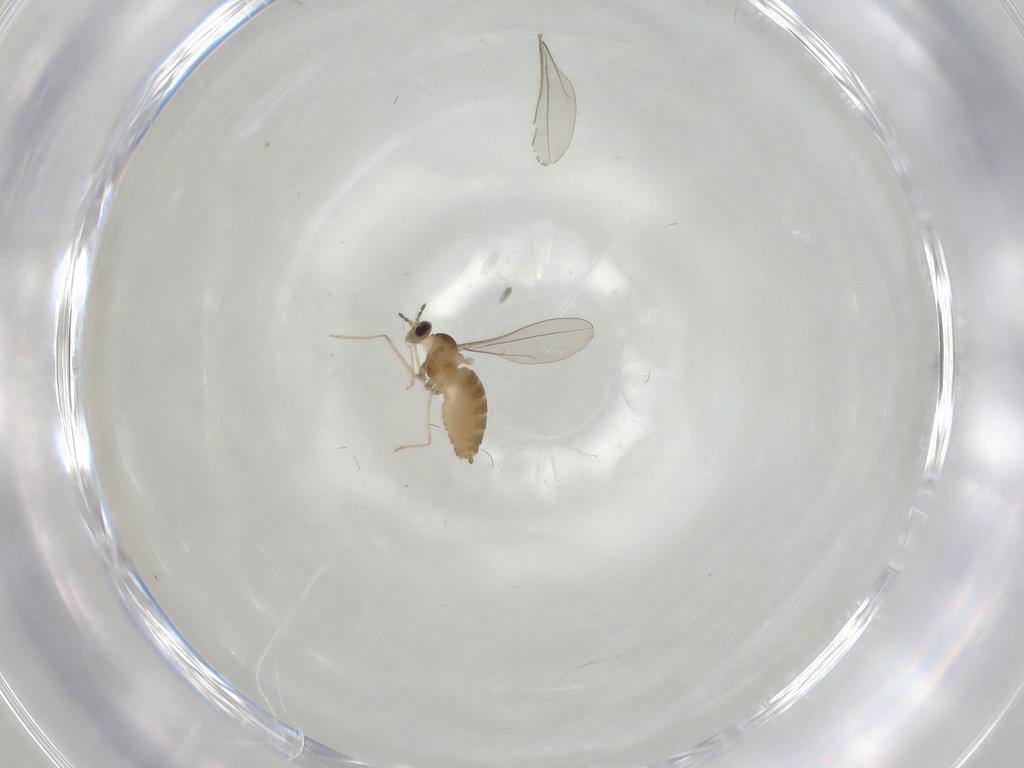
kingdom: Animalia
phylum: Arthropoda
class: Insecta
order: Diptera
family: Cecidomyiidae
